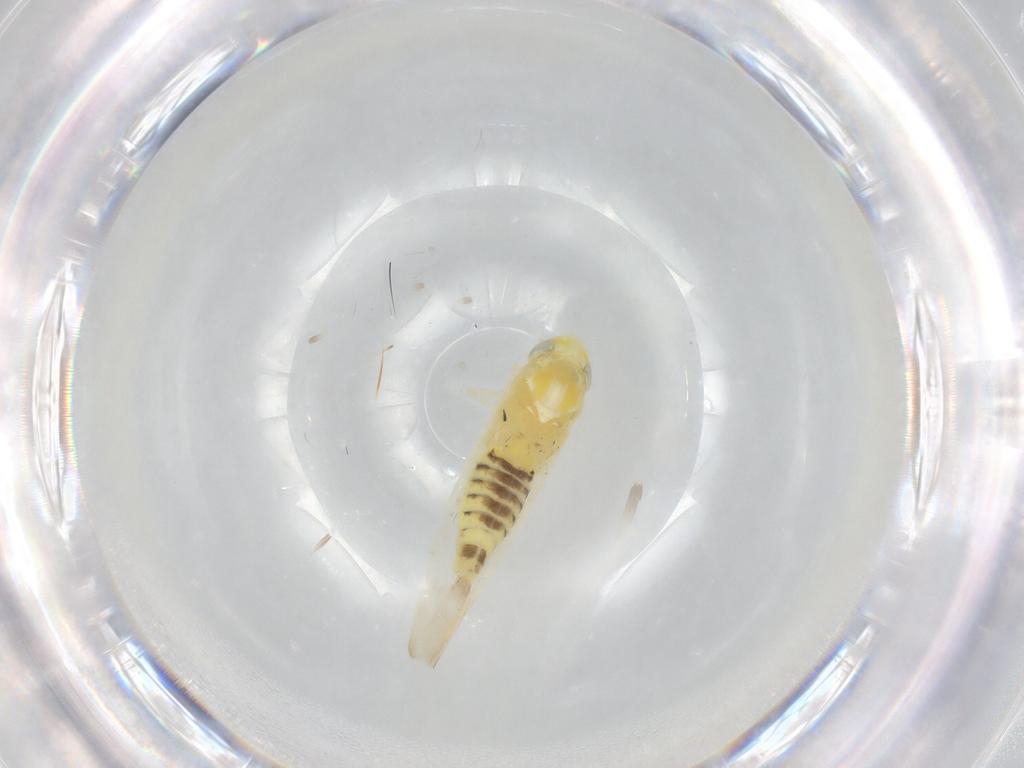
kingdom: Animalia
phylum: Arthropoda
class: Insecta
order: Hemiptera
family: Cicadellidae
